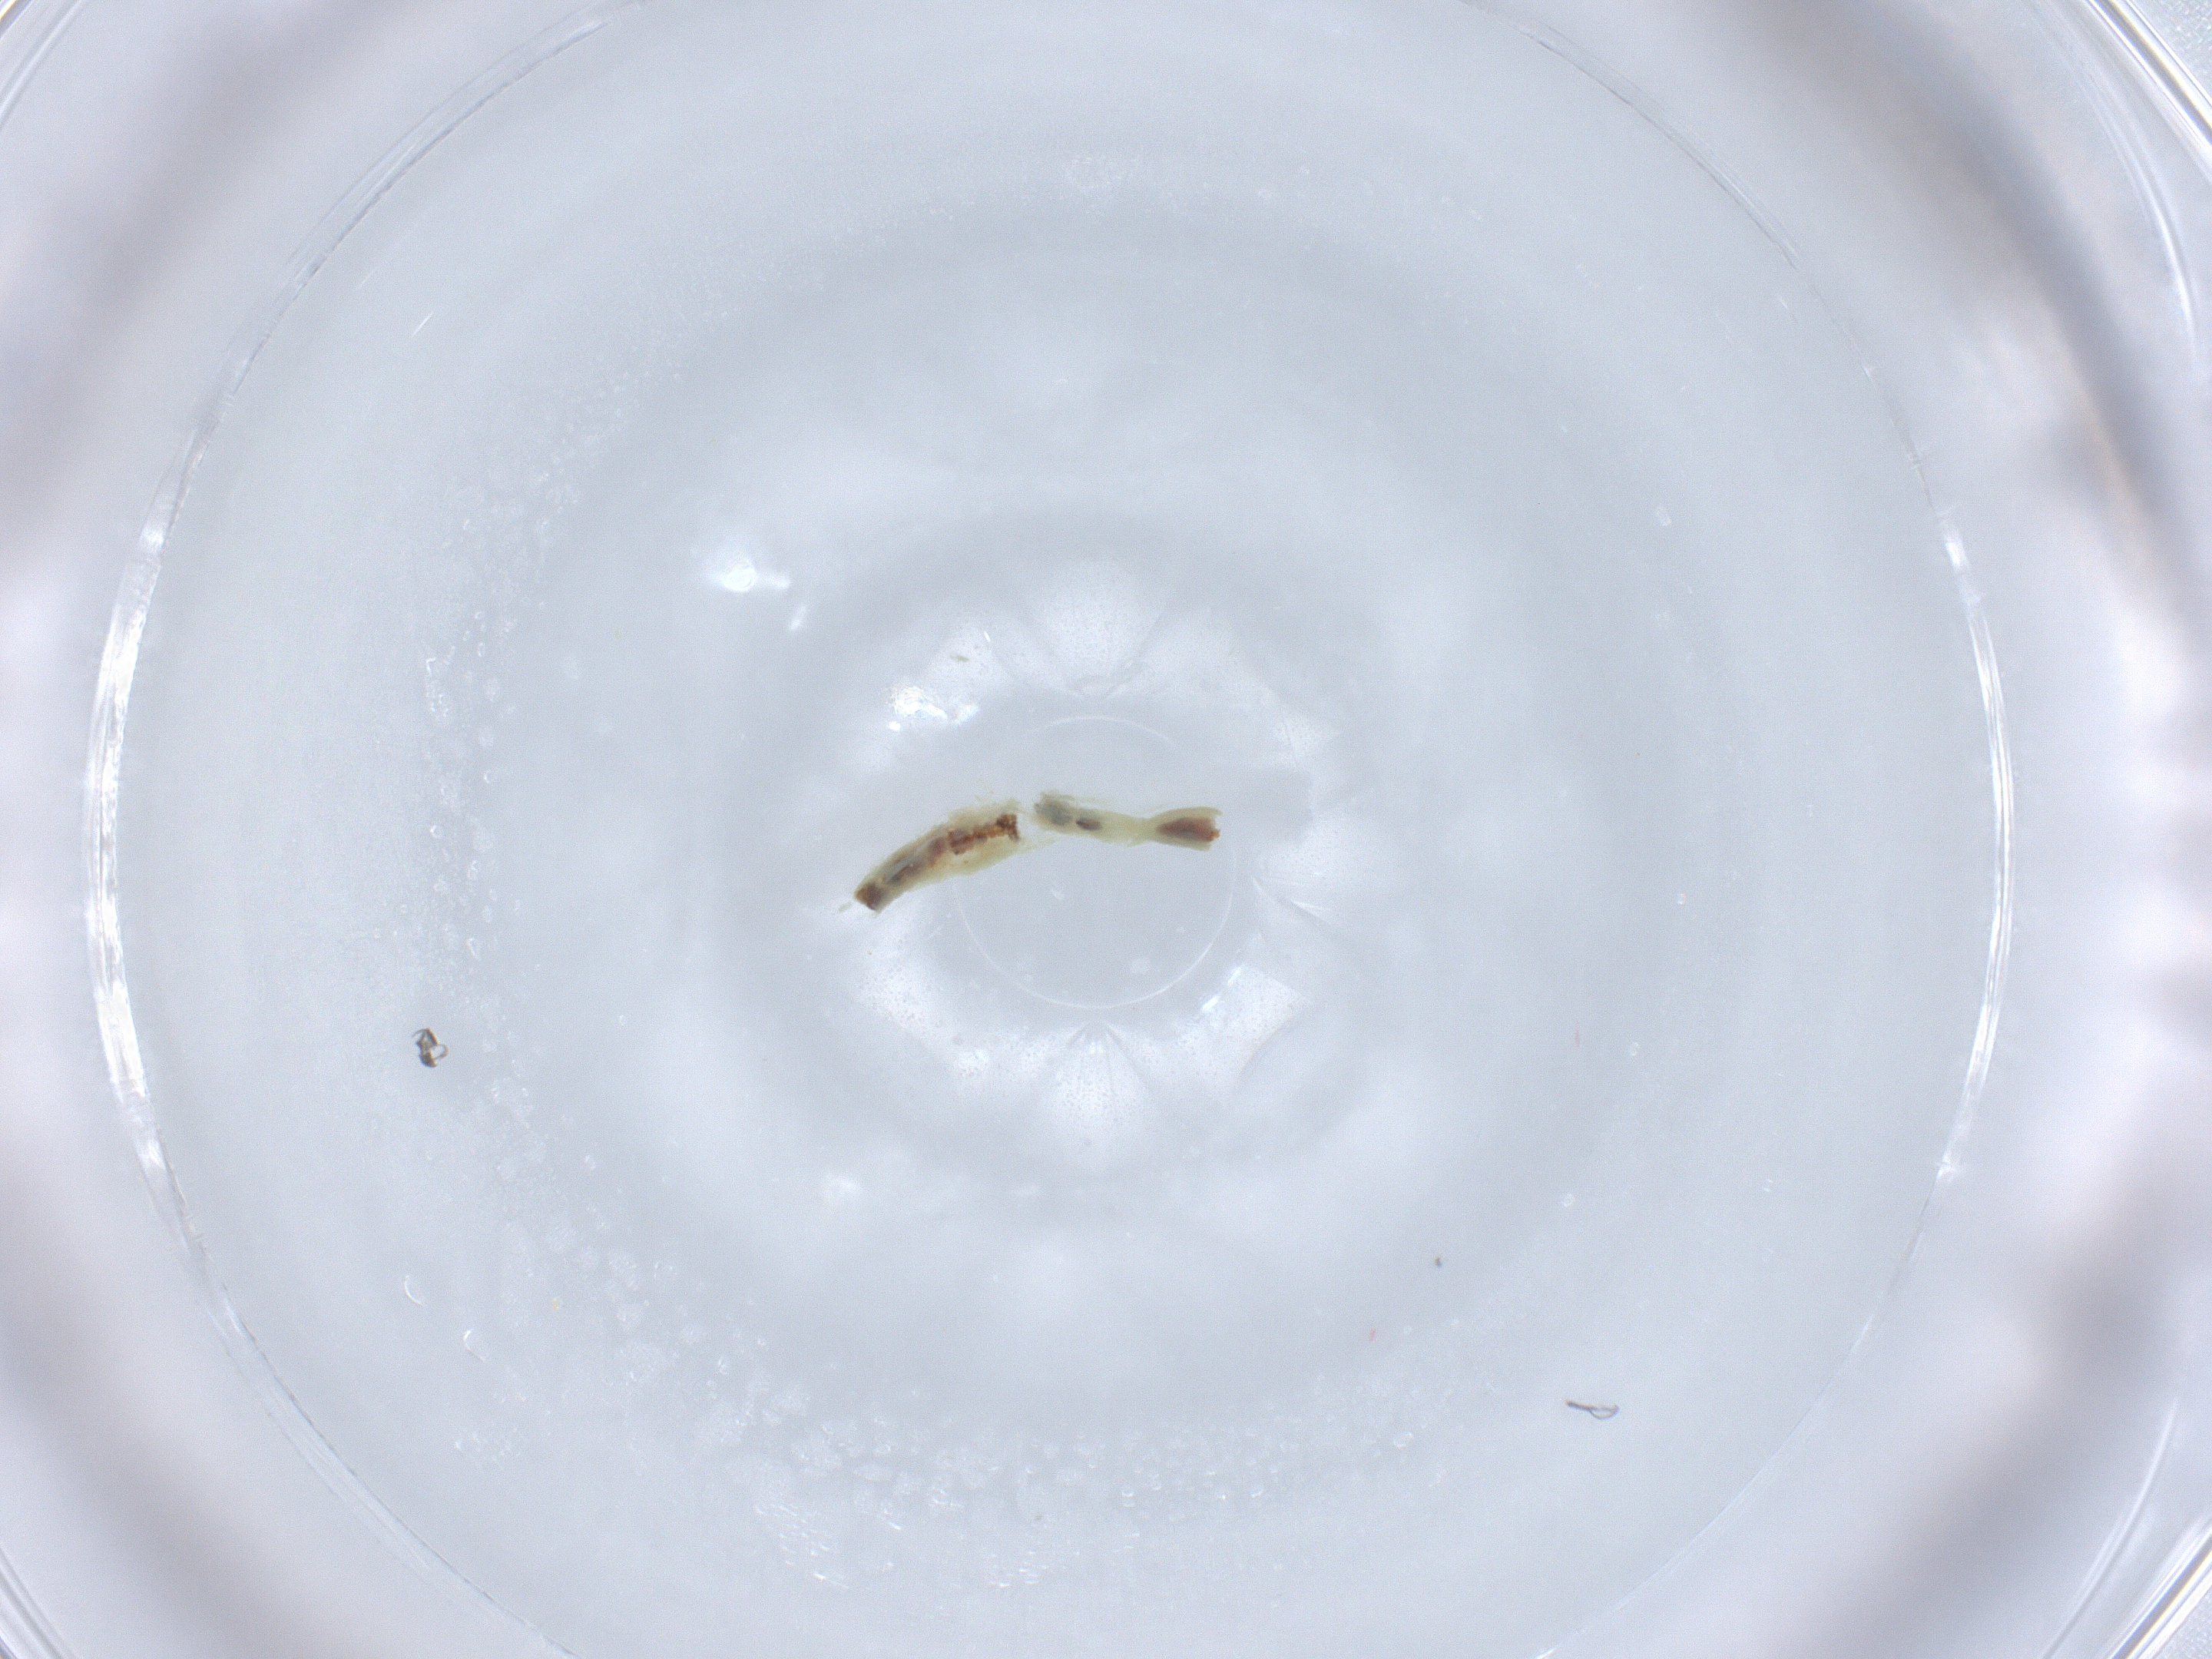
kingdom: Animalia
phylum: Arthropoda
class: Insecta
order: Diptera
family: Chironomidae
